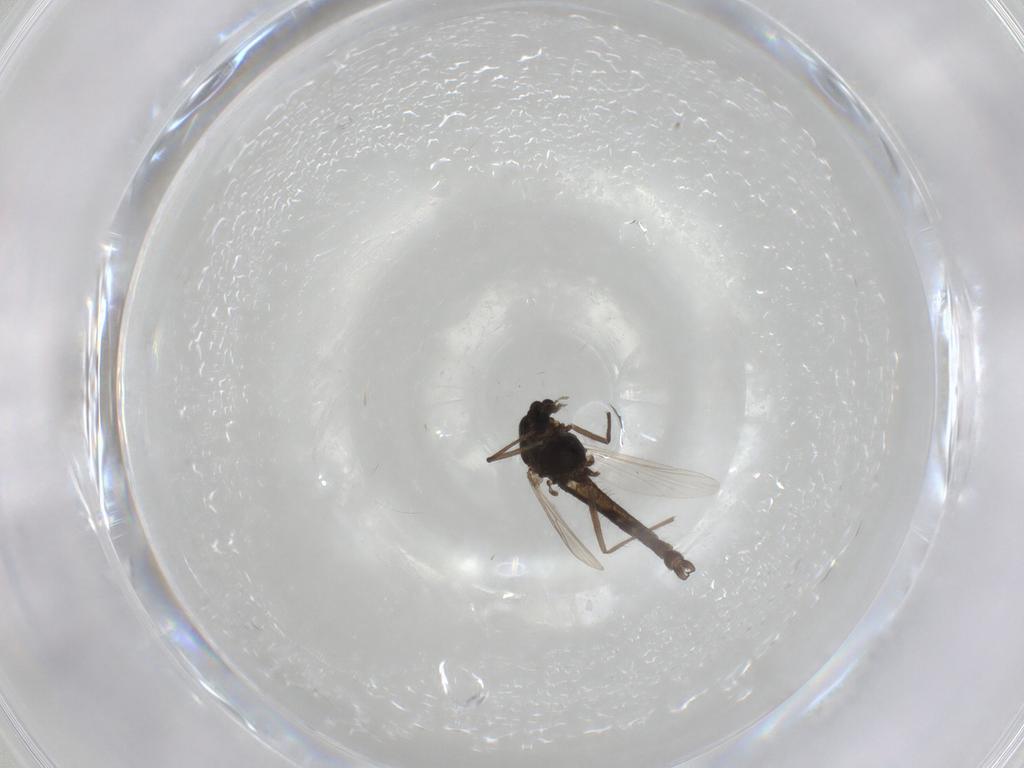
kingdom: Animalia
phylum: Arthropoda
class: Insecta
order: Diptera
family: Chironomidae
